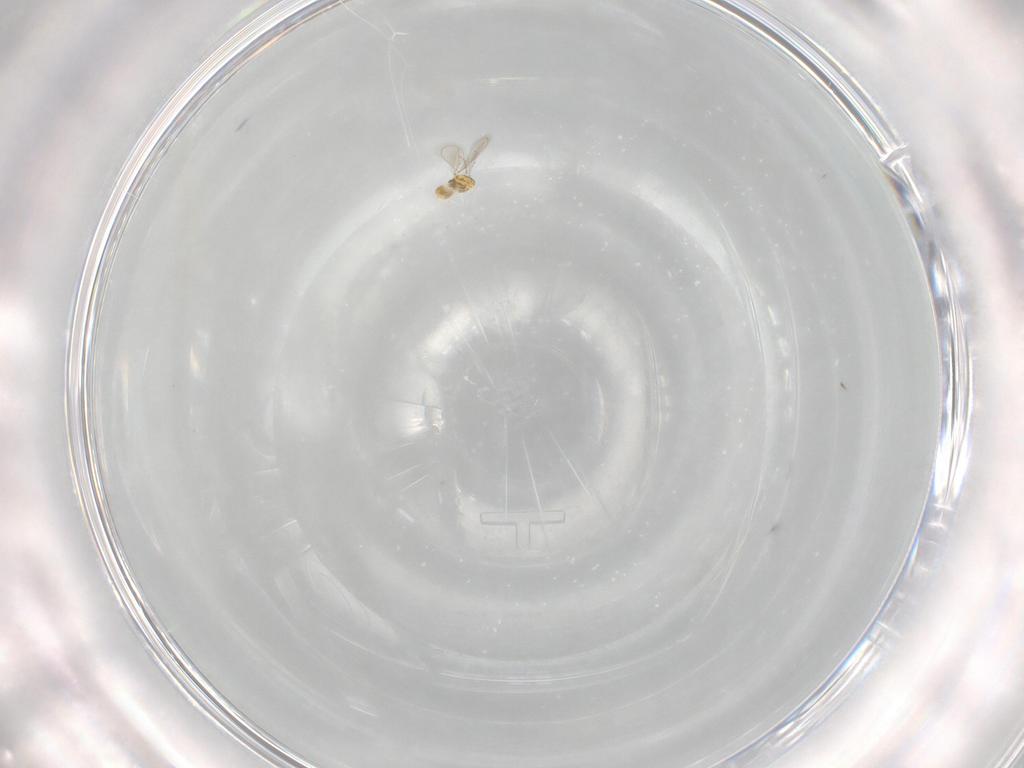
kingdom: Animalia
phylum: Arthropoda
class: Insecta
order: Hymenoptera
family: Eulophidae
